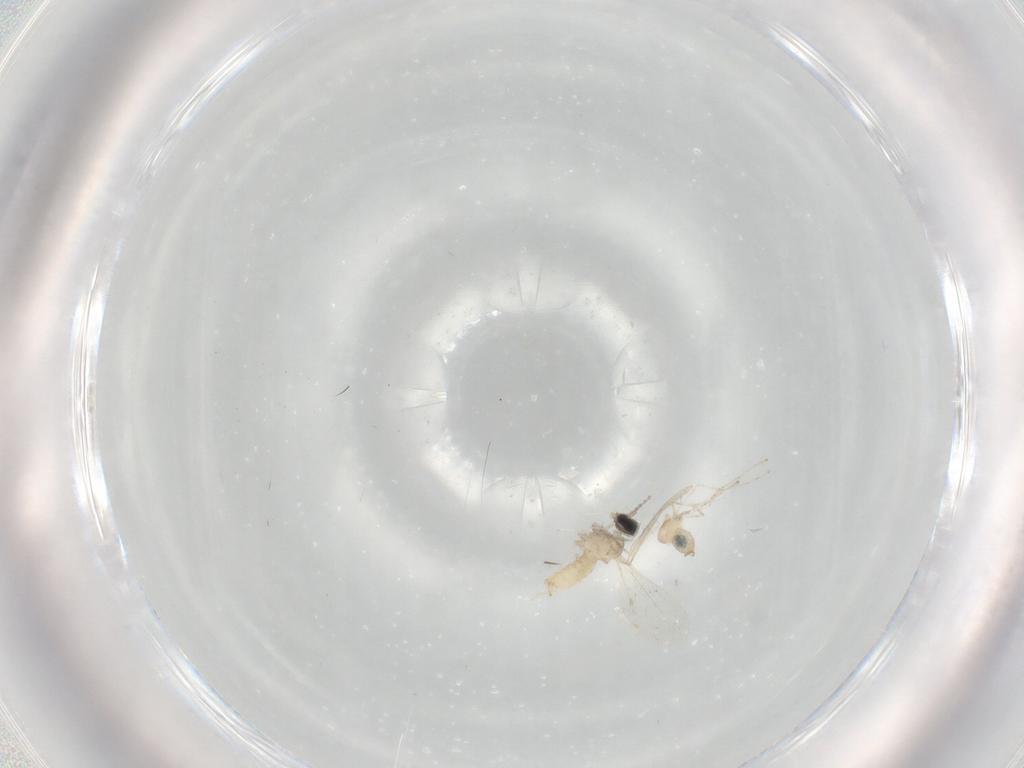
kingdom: Animalia
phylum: Arthropoda
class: Insecta
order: Diptera
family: Cecidomyiidae
